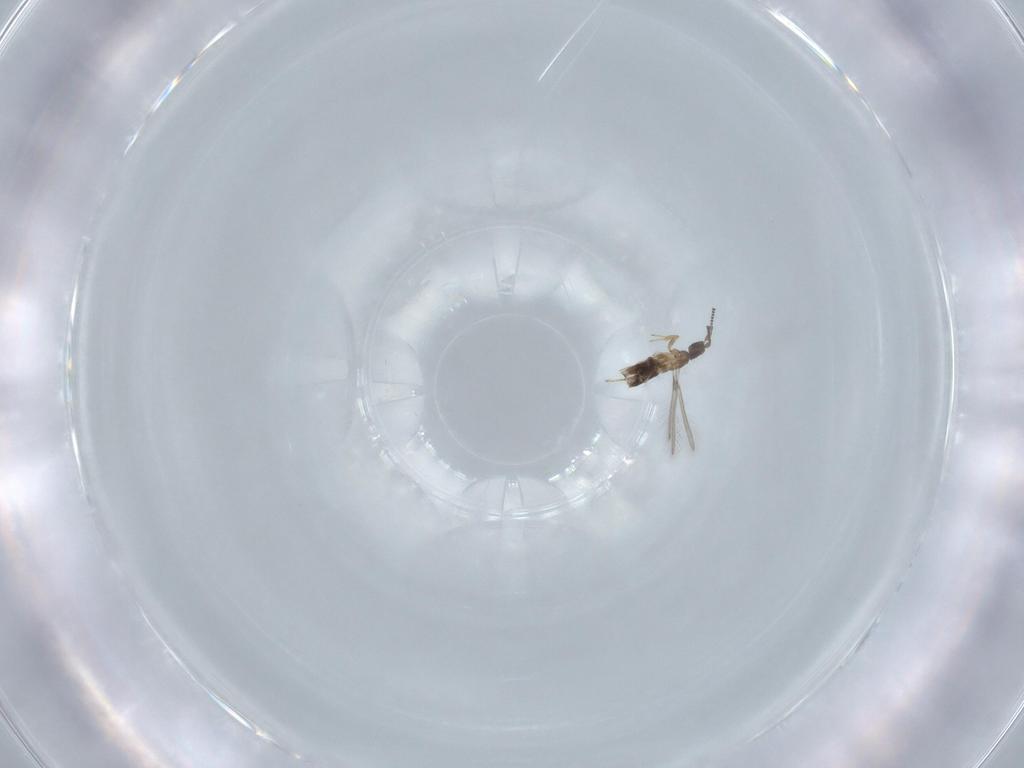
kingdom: Animalia
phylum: Arthropoda
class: Insecta
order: Hymenoptera
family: Mymaridae
